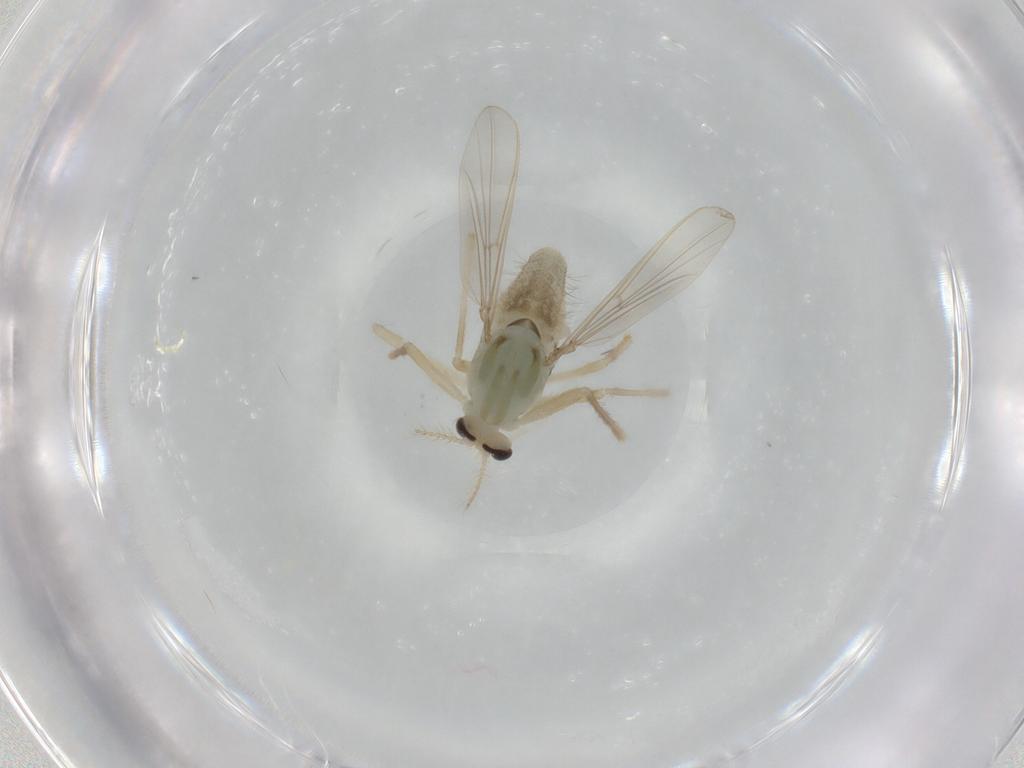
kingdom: Animalia
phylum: Arthropoda
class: Insecta
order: Diptera
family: Chironomidae
